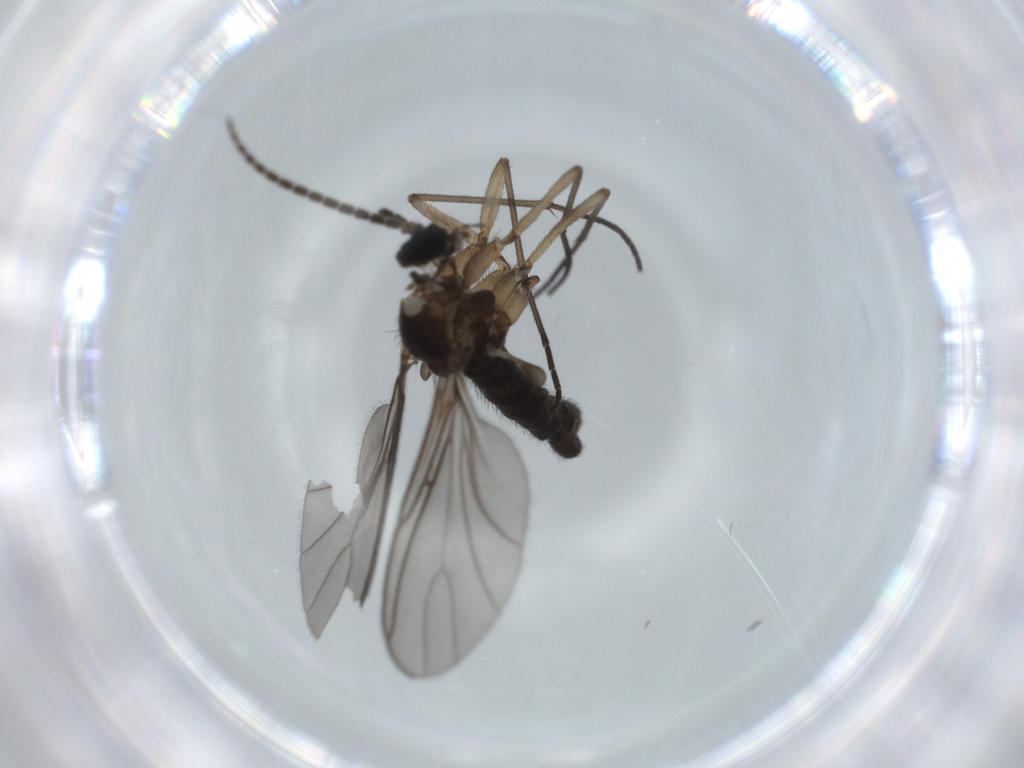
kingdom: Animalia
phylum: Arthropoda
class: Insecta
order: Diptera
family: Sciaridae
